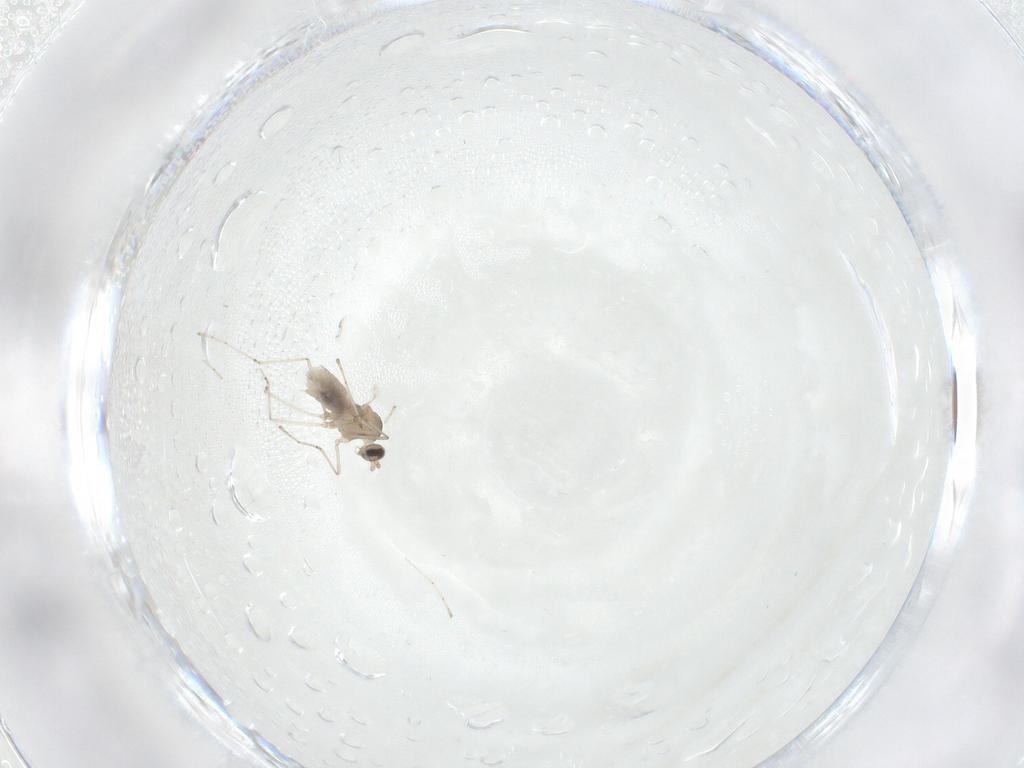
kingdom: Animalia
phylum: Arthropoda
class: Insecta
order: Diptera
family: Cecidomyiidae
